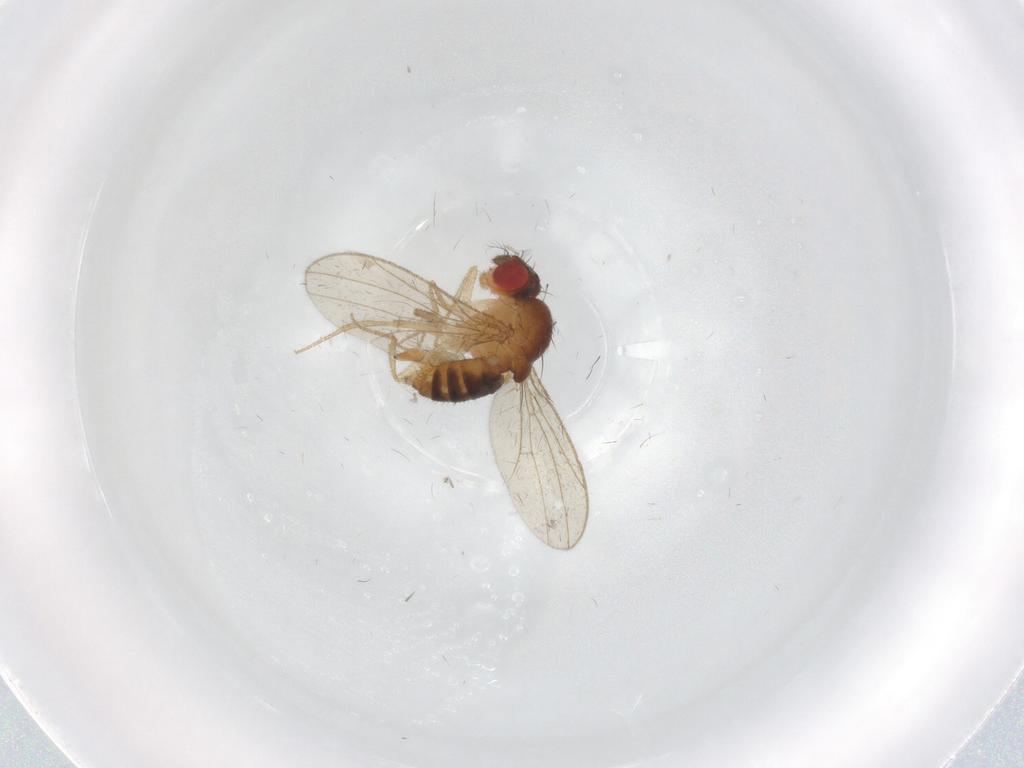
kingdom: Animalia
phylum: Arthropoda
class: Insecta
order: Diptera
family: Drosophilidae
